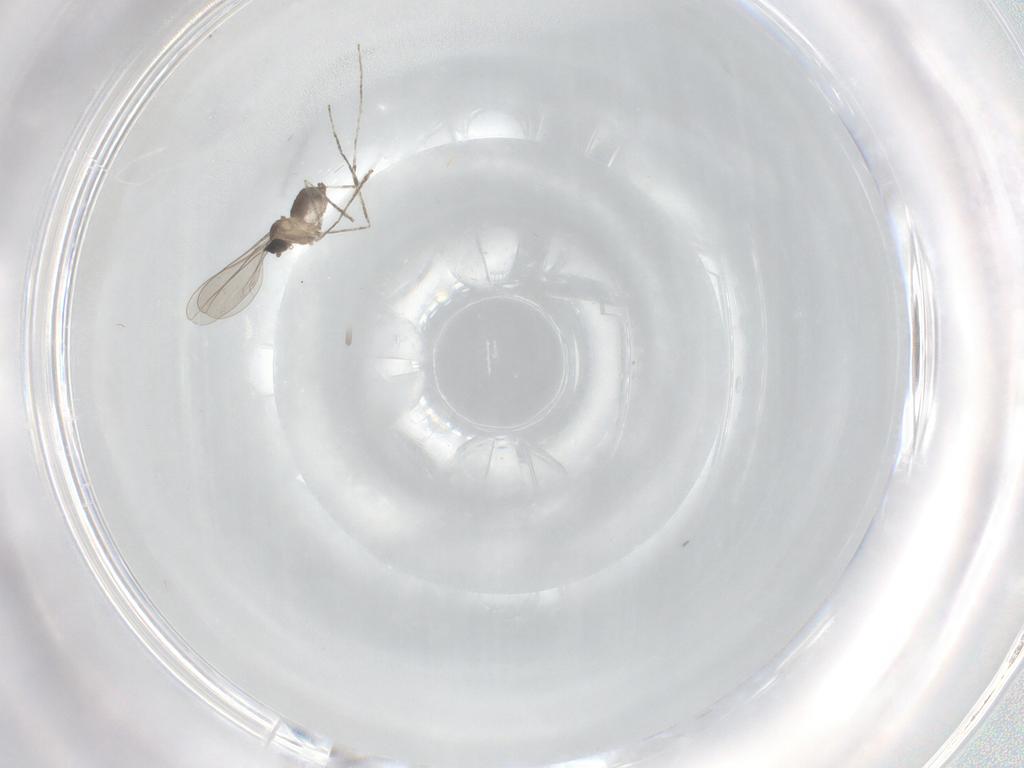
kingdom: Animalia
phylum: Arthropoda
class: Insecta
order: Diptera
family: Cecidomyiidae
